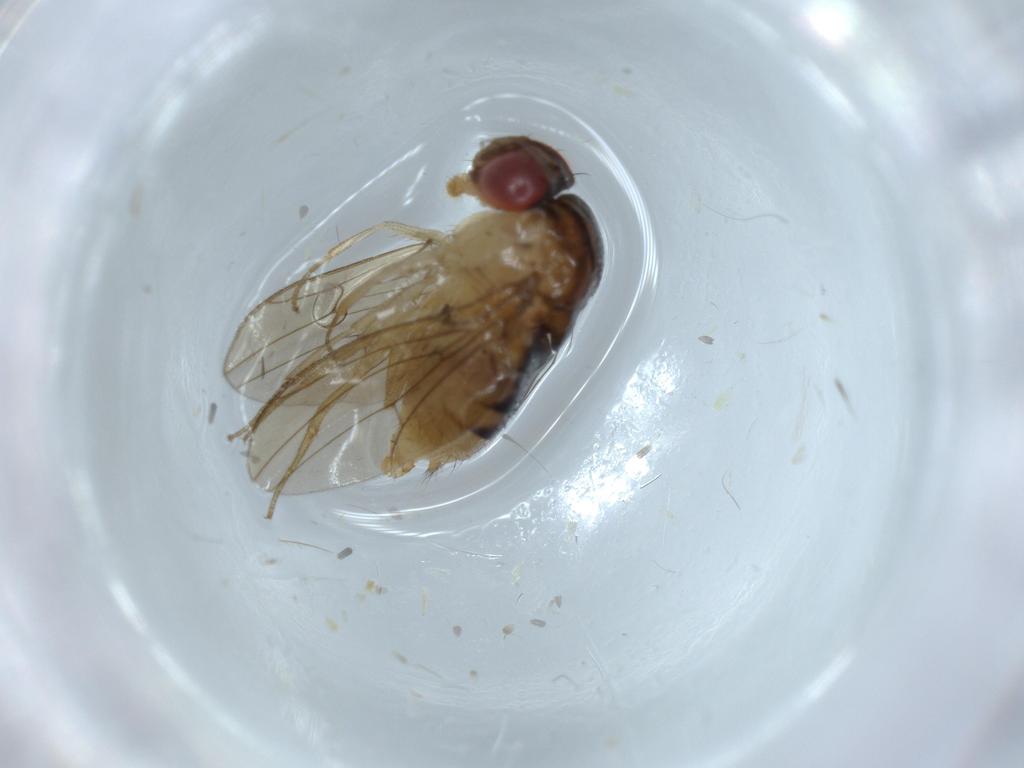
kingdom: Animalia
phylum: Arthropoda
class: Insecta
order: Diptera
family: Drosophilidae
